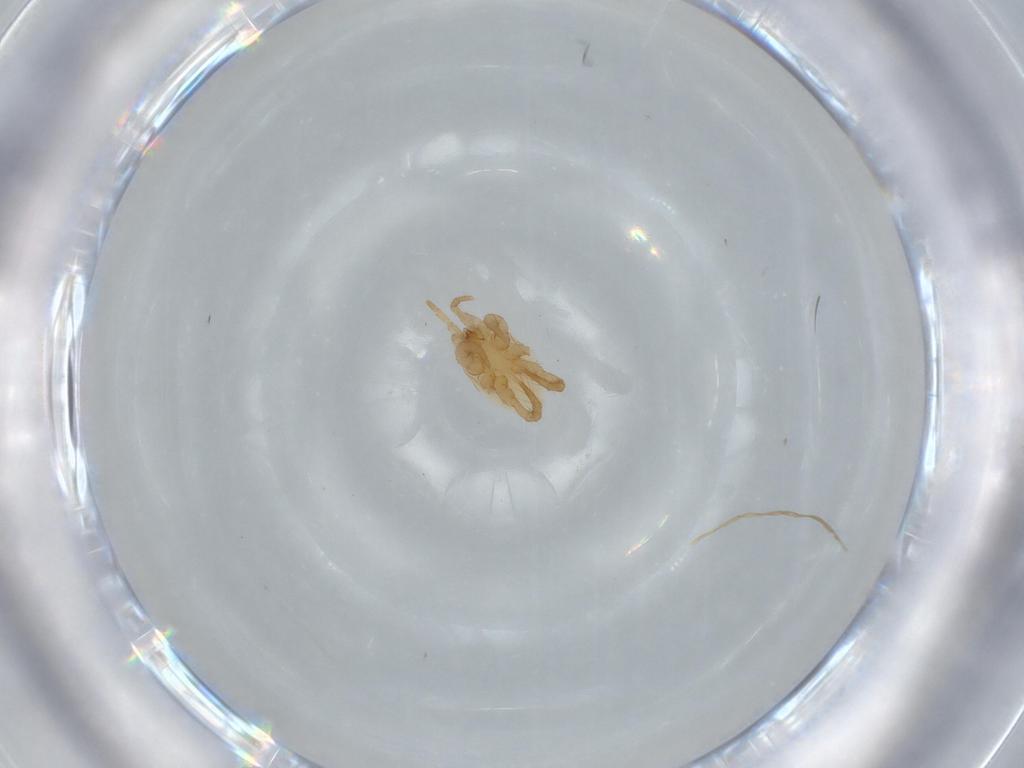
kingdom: Animalia
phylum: Arthropoda
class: Arachnida
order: Mesostigmata
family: Parasitidae
